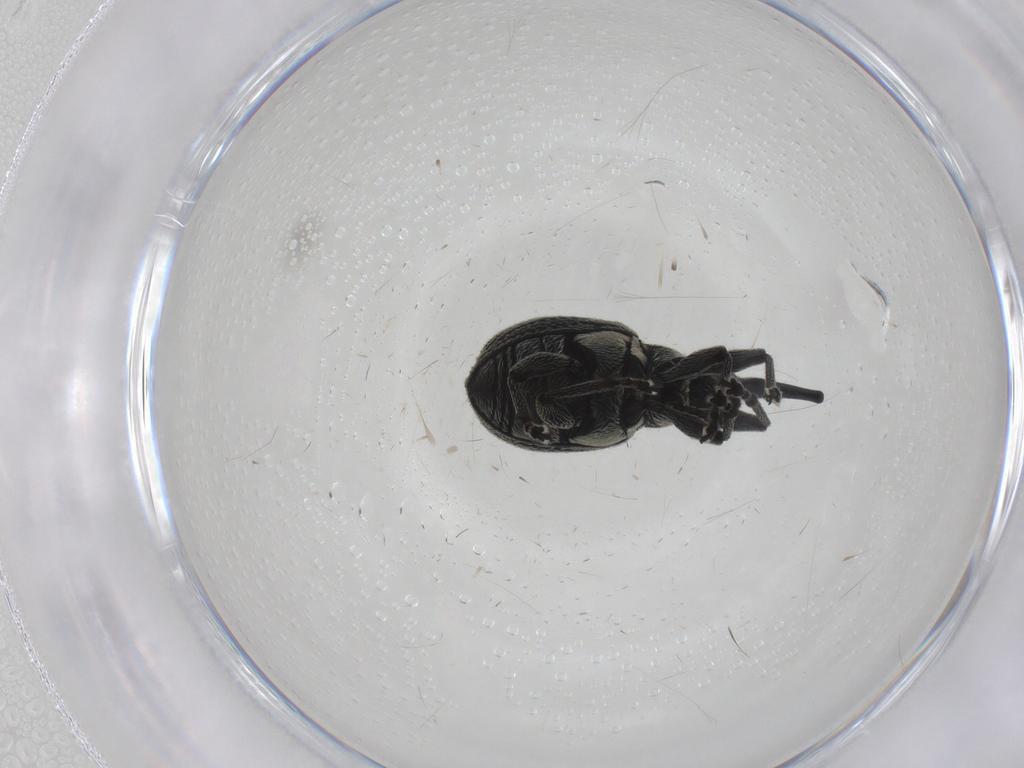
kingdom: Animalia
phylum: Arthropoda
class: Insecta
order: Coleoptera
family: Brentidae
